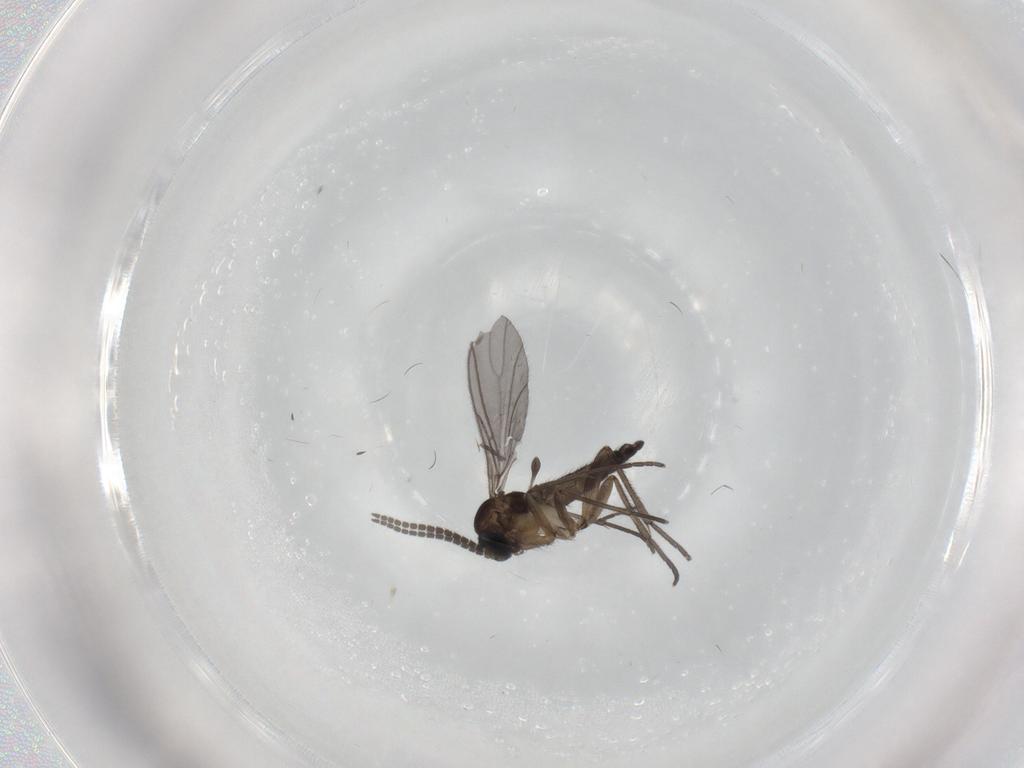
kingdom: Animalia
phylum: Arthropoda
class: Insecta
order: Diptera
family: Sciaridae
